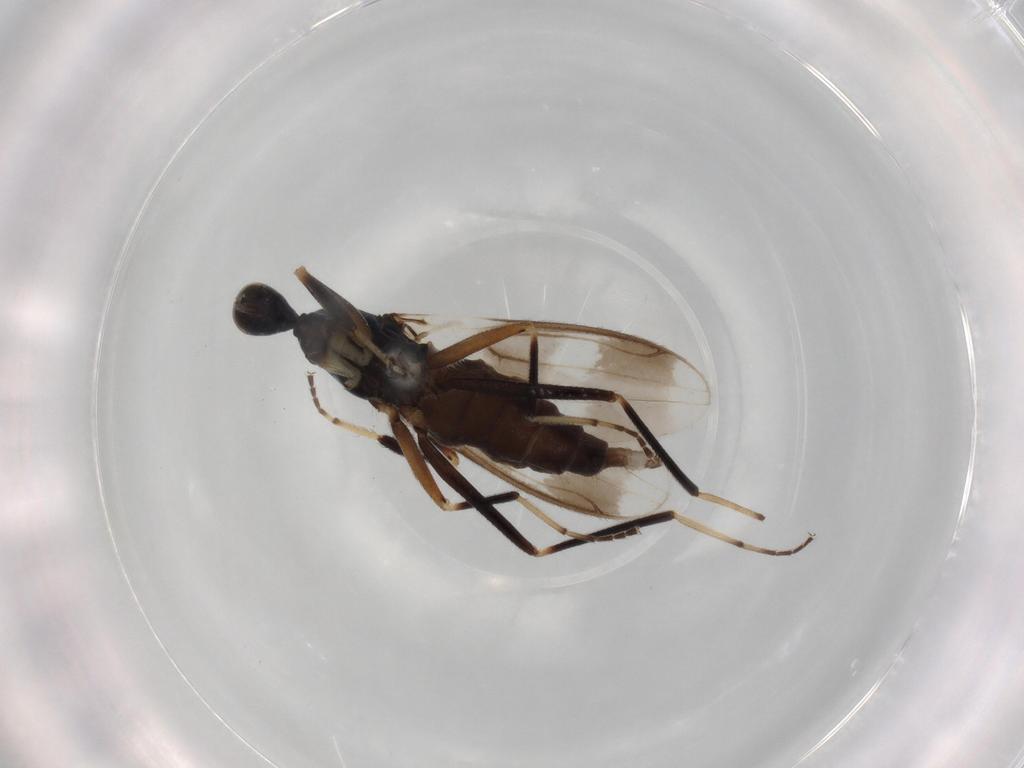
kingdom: Animalia
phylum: Arthropoda
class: Insecta
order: Diptera
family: Hybotidae
